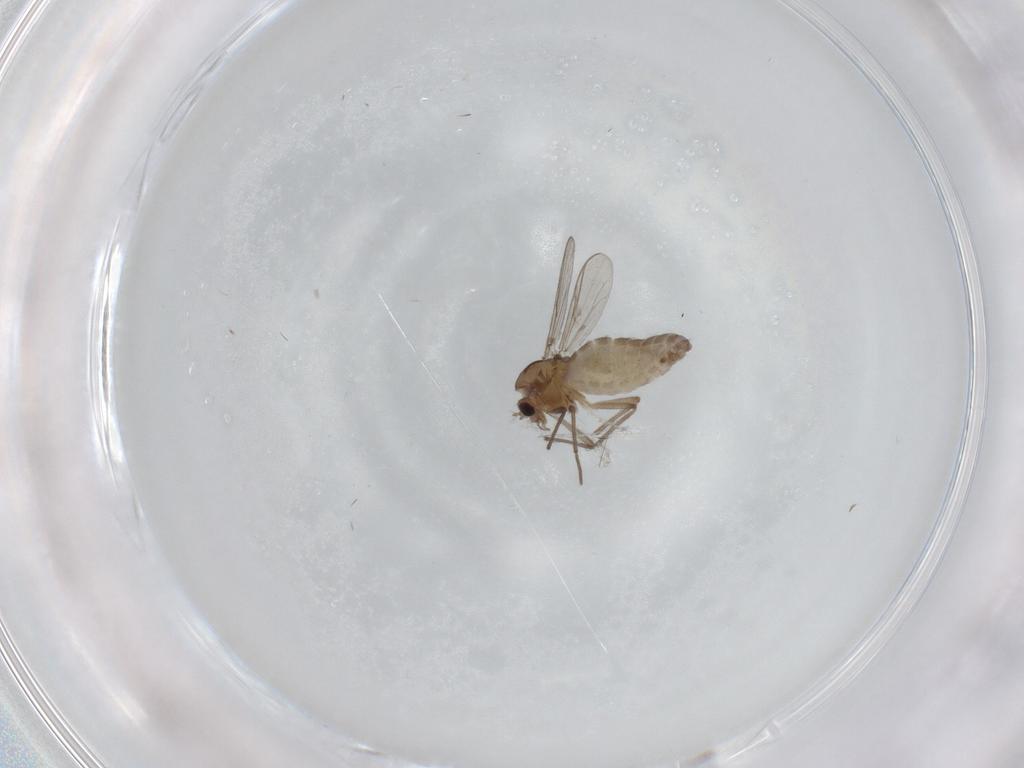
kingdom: Animalia
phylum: Arthropoda
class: Insecta
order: Diptera
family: Chironomidae
